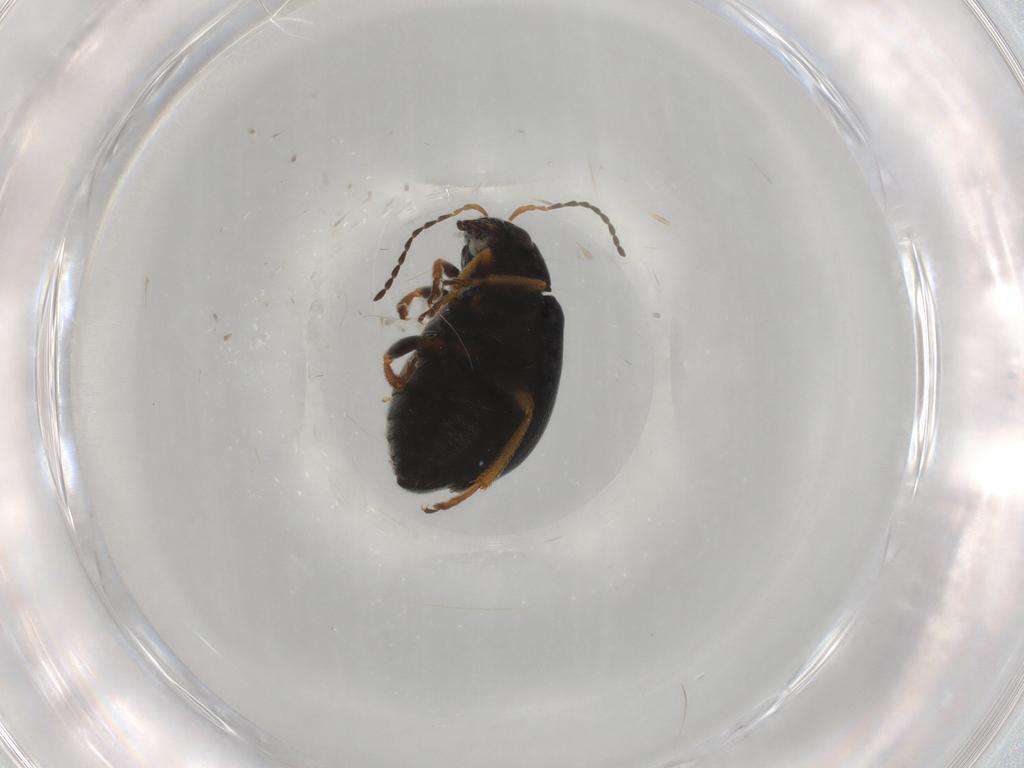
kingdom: Animalia
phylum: Arthropoda
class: Insecta
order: Coleoptera
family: Chrysomelidae
